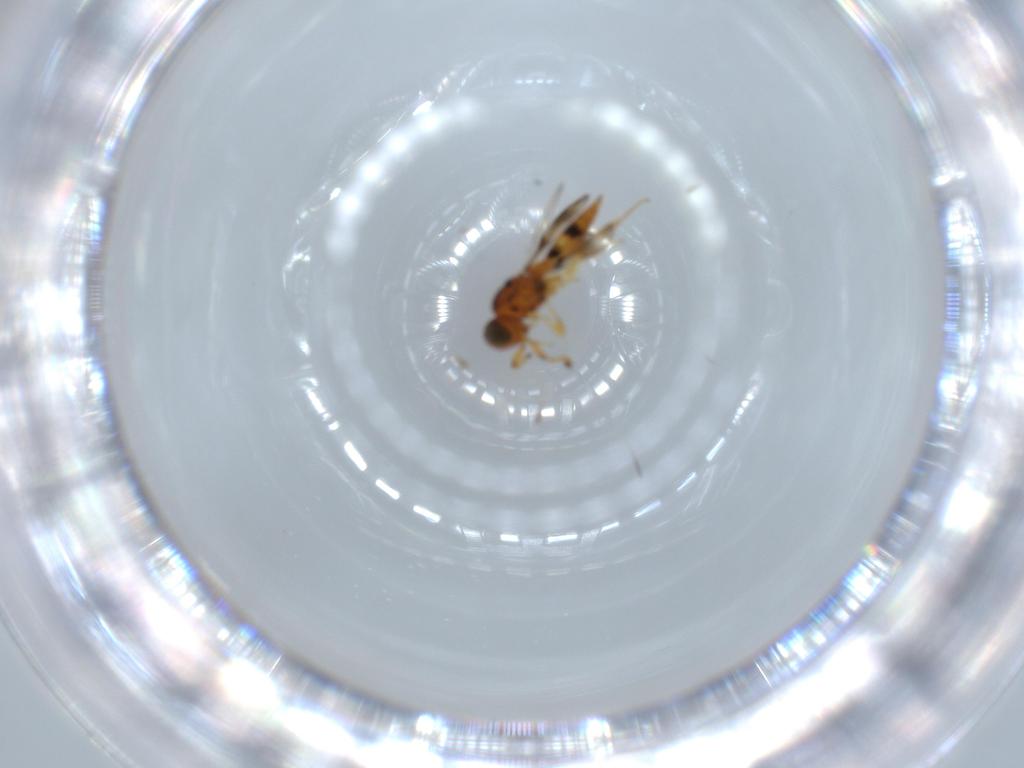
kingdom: Animalia
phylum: Arthropoda
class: Insecta
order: Hymenoptera
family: Scelionidae
